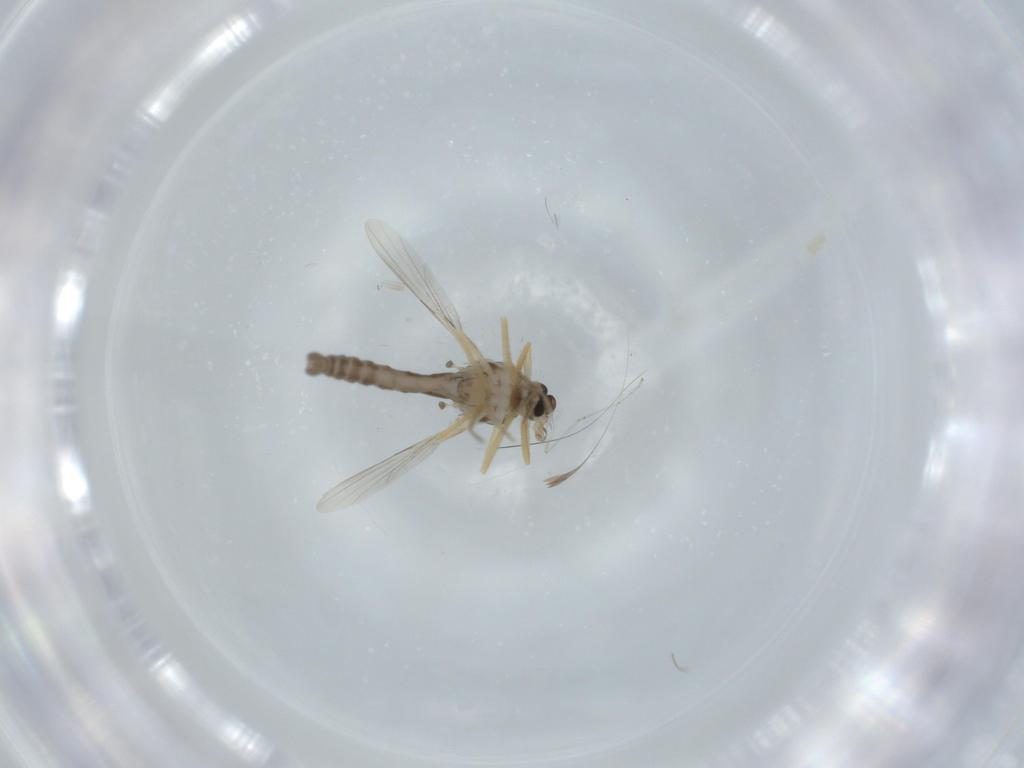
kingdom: Animalia
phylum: Arthropoda
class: Insecta
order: Diptera
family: Ceratopogonidae
